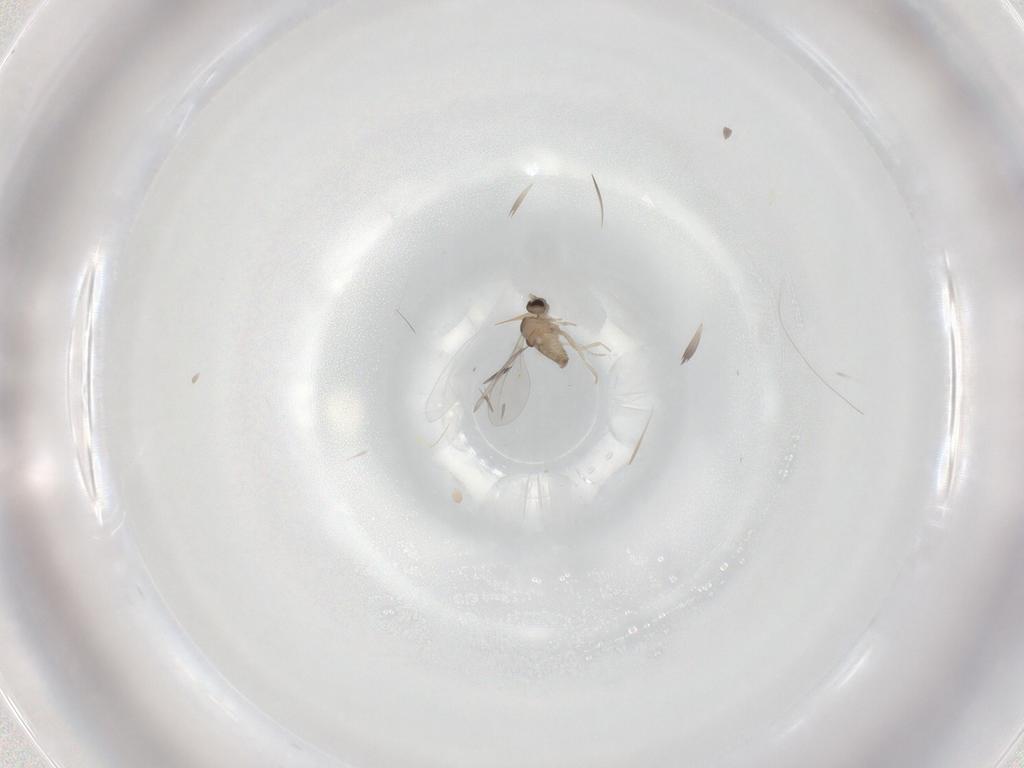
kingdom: Animalia
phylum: Arthropoda
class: Insecta
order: Diptera
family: Cecidomyiidae
